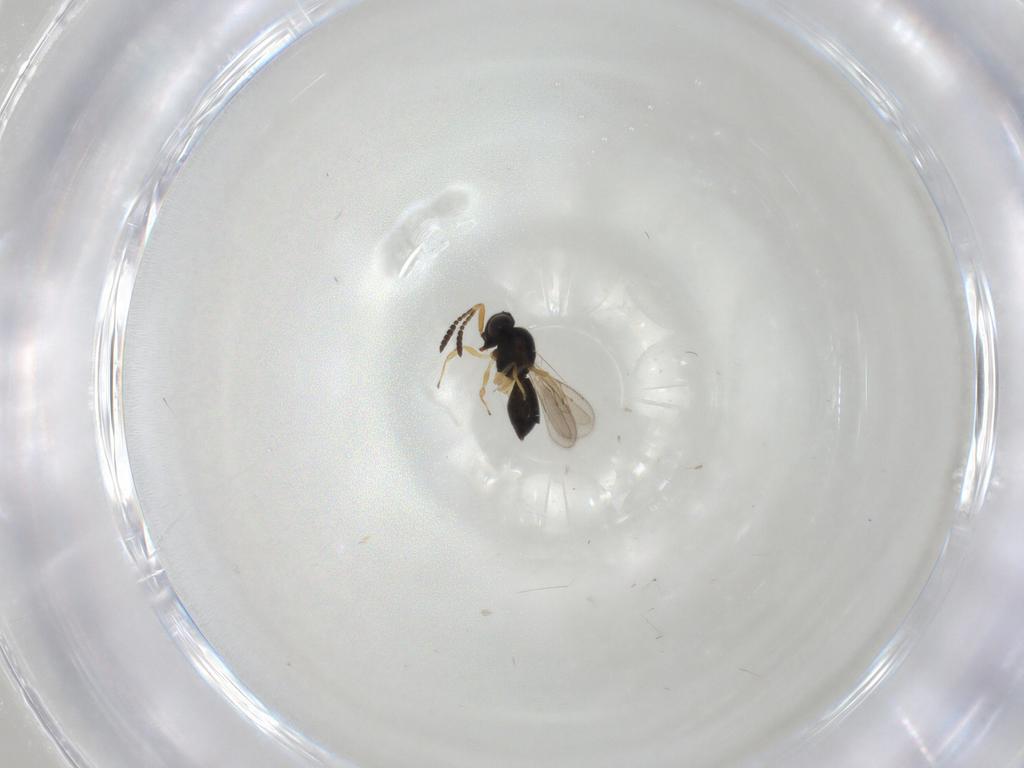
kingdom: Animalia
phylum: Arthropoda
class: Insecta
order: Hymenoptera
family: Scelionidae
